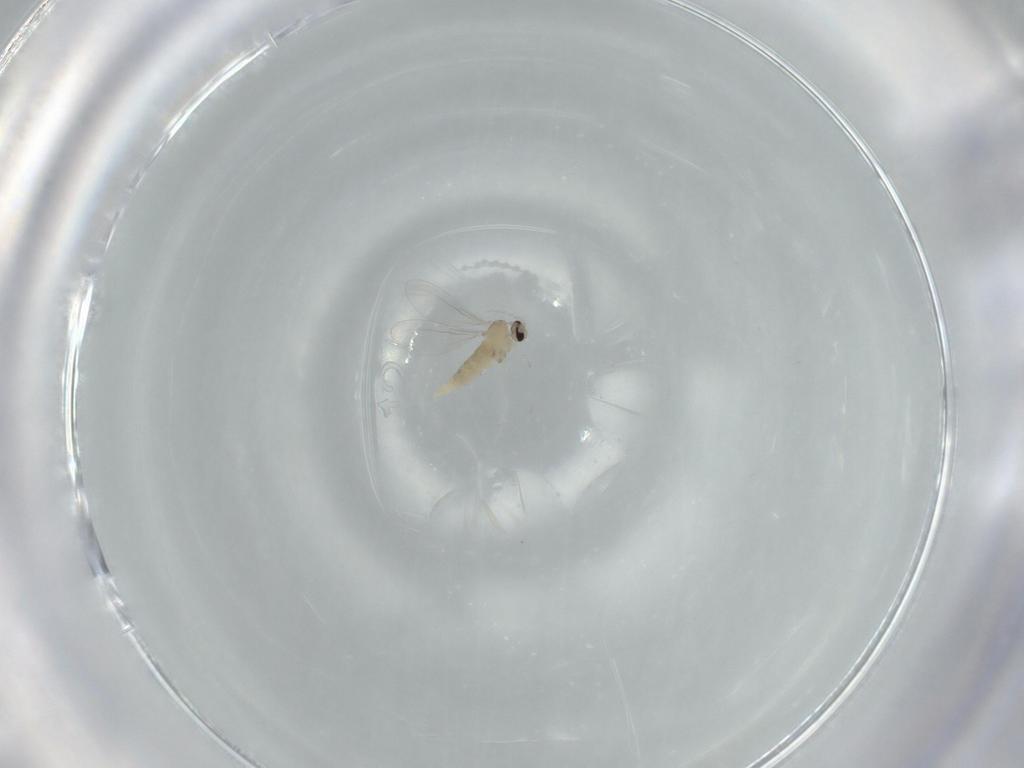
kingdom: Animalia
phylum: Arthropoda
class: Insecta
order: Diptera
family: Cecidomyiidae
